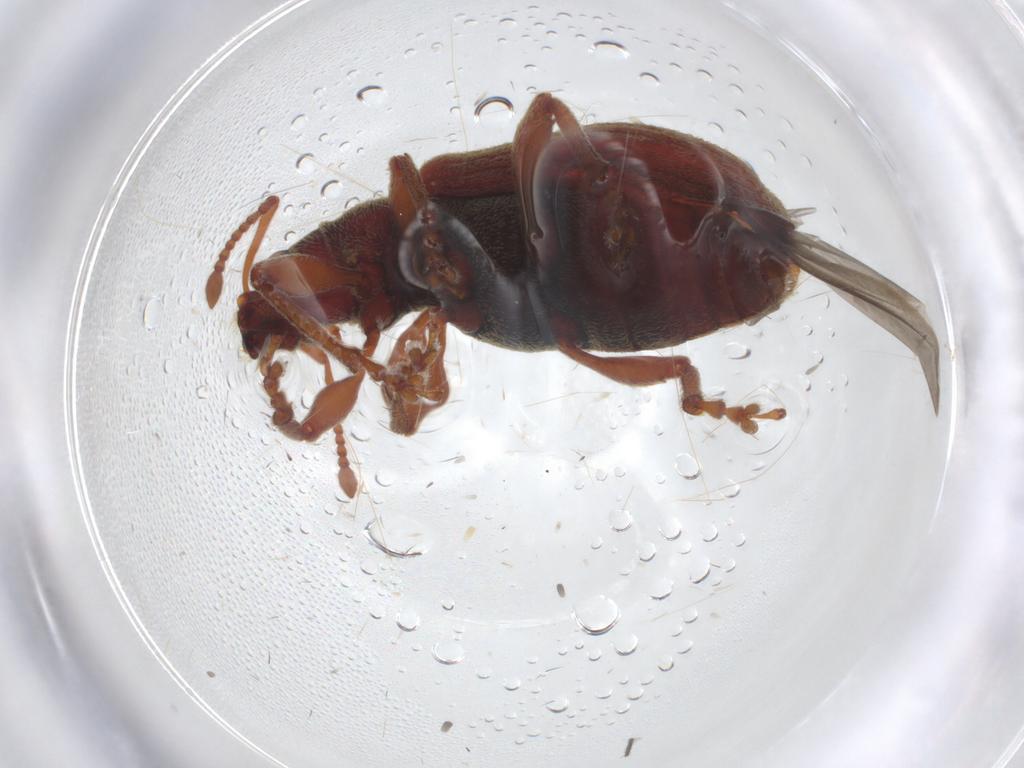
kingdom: Animalia
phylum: Arthropoda
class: Insecta
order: Coleoptera
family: Curculionidae
